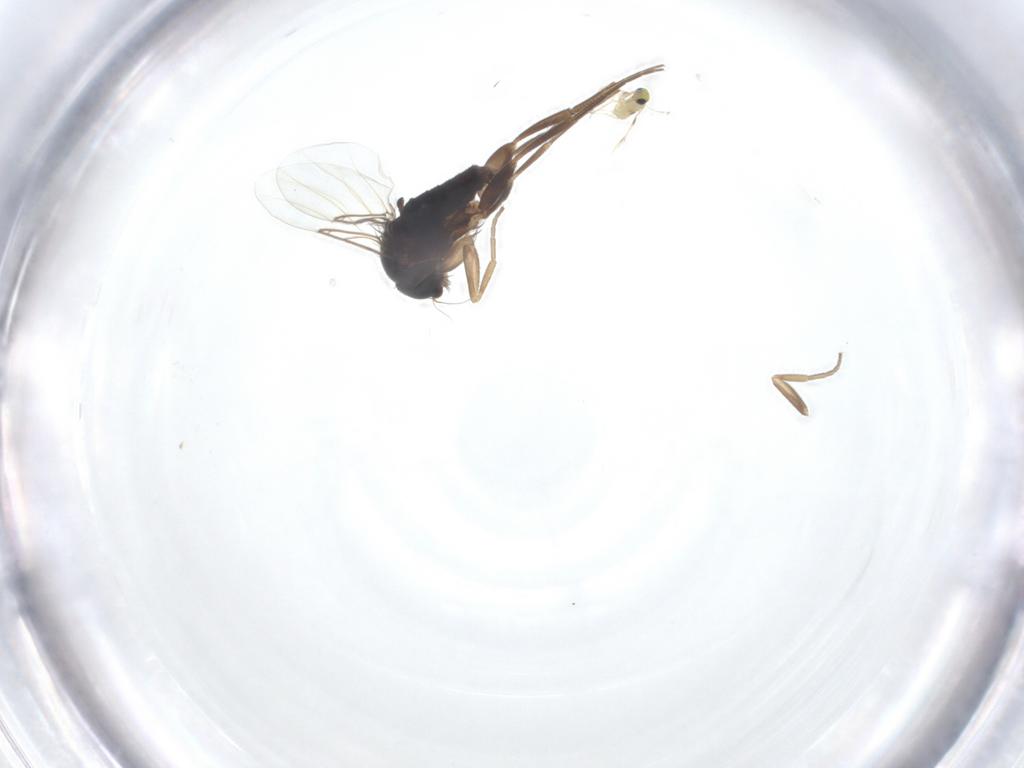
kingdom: Animalia
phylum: Arthropoda
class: Insecta
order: Diptera
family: Phoridae
